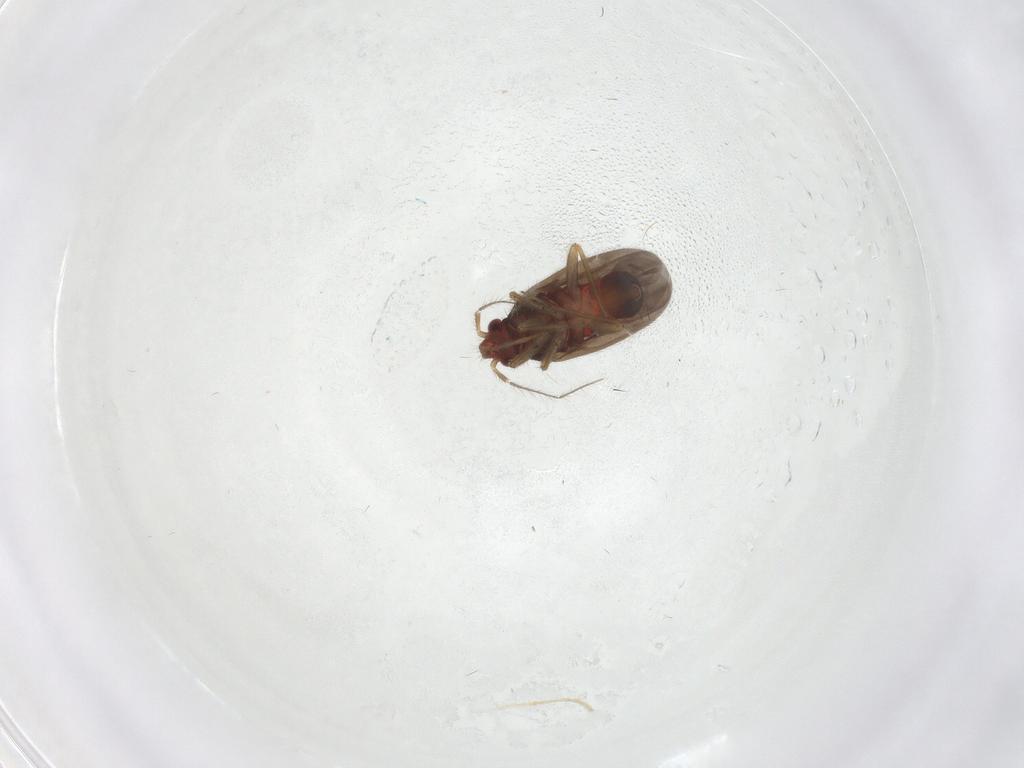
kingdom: Animalia
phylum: Arthropoda
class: Insecta
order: Hemiptera
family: Ceratocombidae
